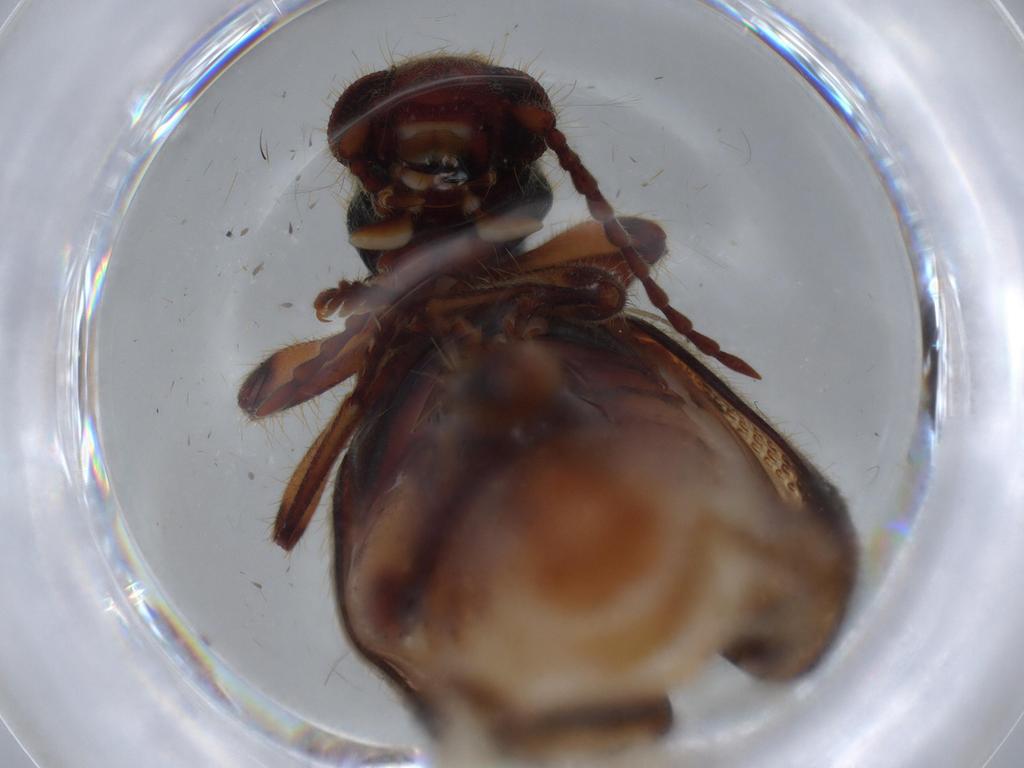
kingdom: Animalia
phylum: Arthropoda
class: Insecta
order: Coleoptera
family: Cleridae
